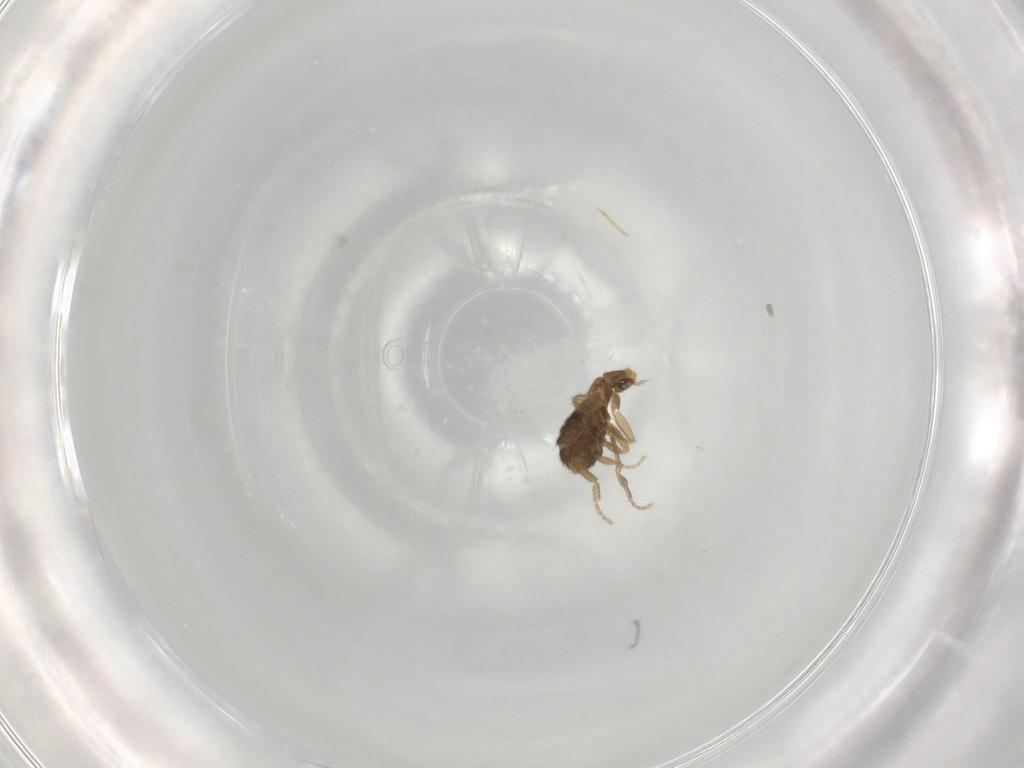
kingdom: Animalia
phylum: Arthropoda
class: Insecta
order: Diptera
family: Phoridae
